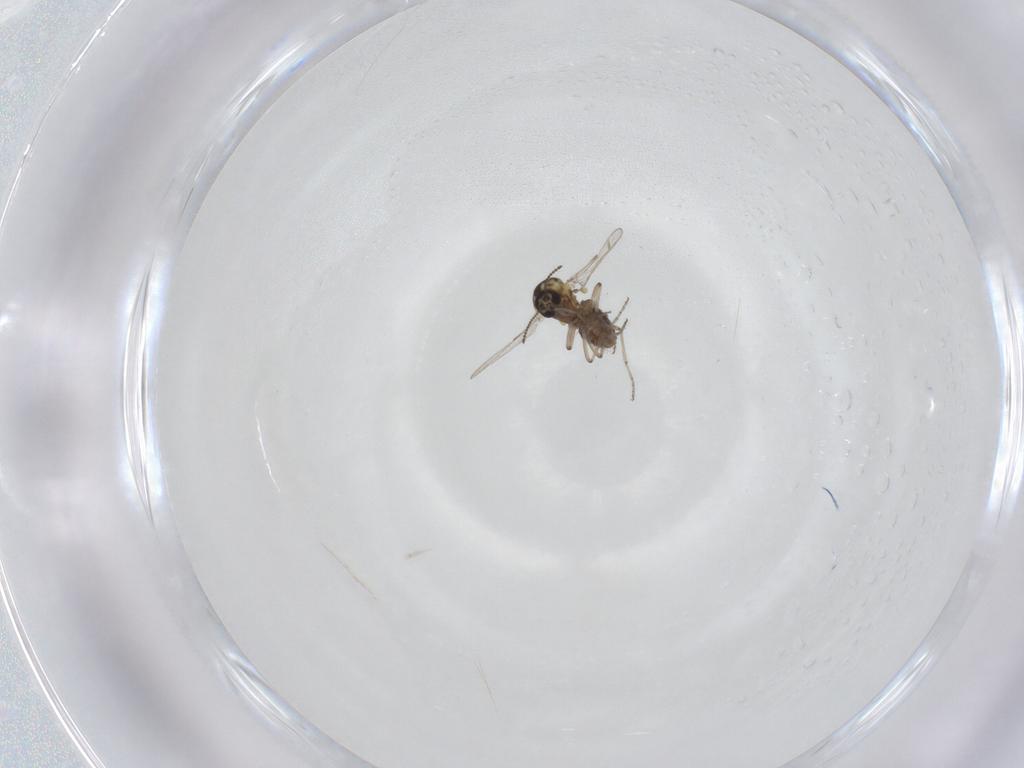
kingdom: Animalia
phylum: Arthropoda
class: Insecta
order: Diptera
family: Ceratopogonidae
